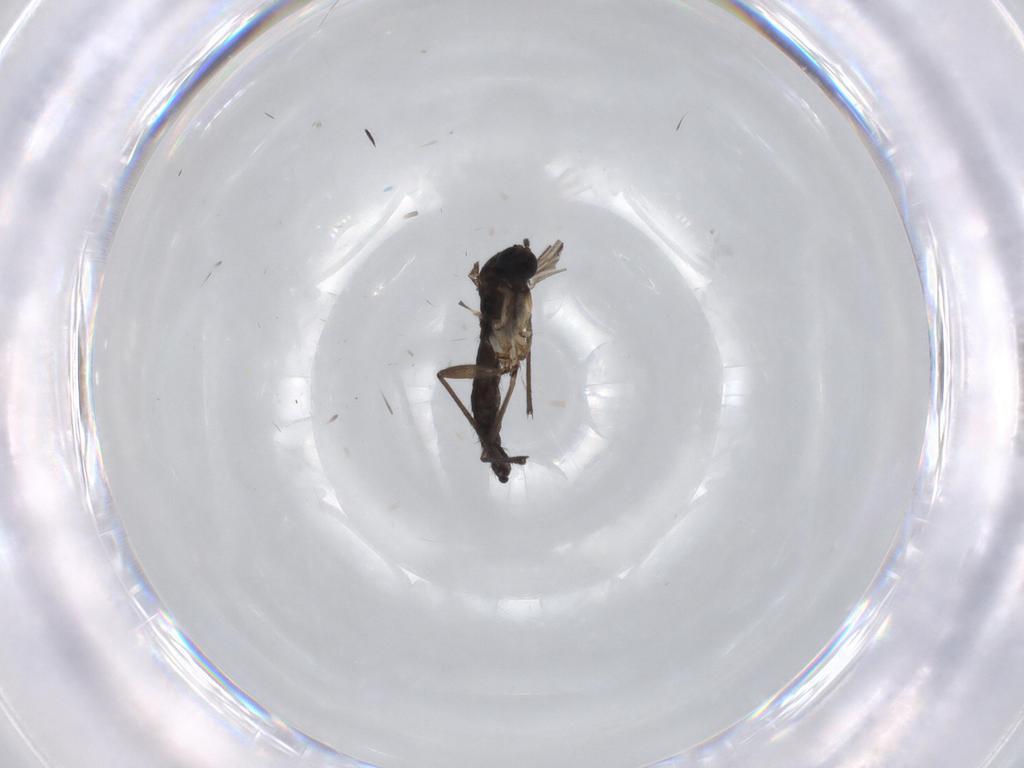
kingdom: Animalia
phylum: Arthropoda
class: Insecta
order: Diptera
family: Sciaridae
